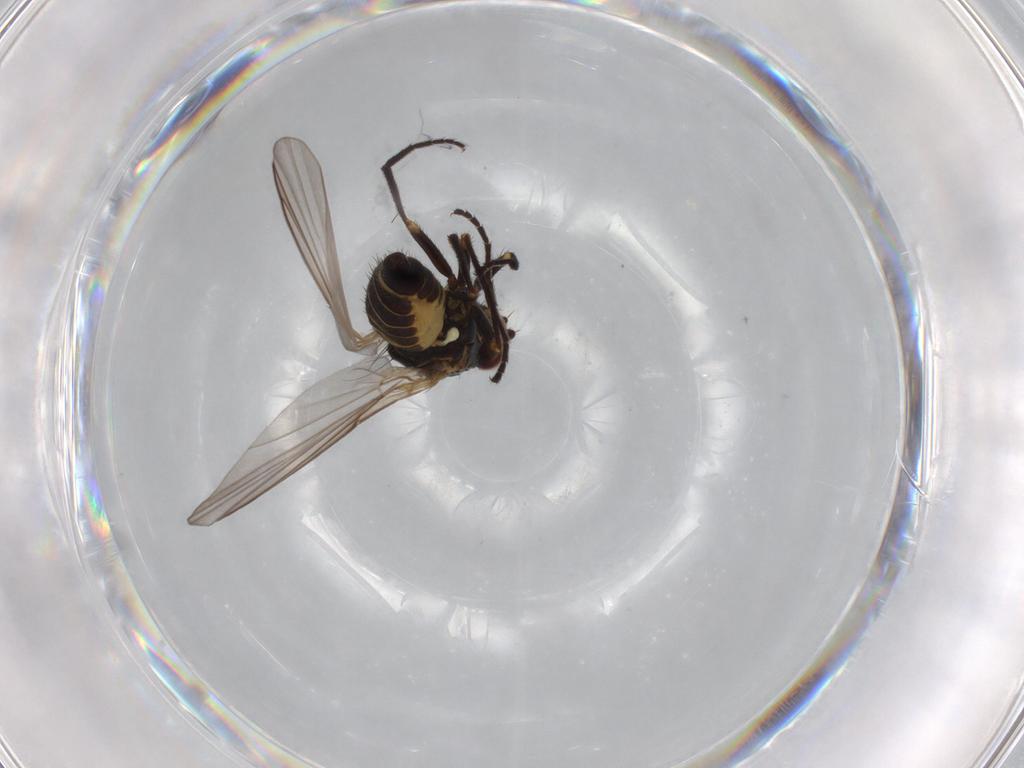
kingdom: Animalia
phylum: Arthropoda
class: Insecta
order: Diptera
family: Agromyzidae
